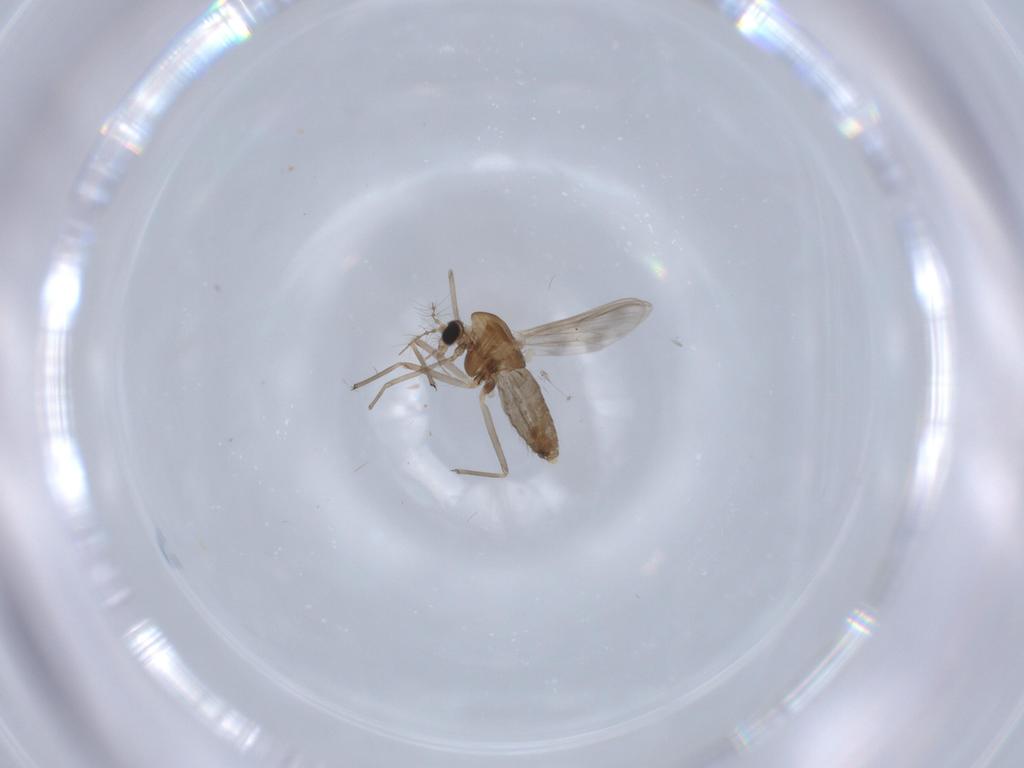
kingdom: Animalia
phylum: Arthropoda
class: Insecta
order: Diptera
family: Chironomidae
